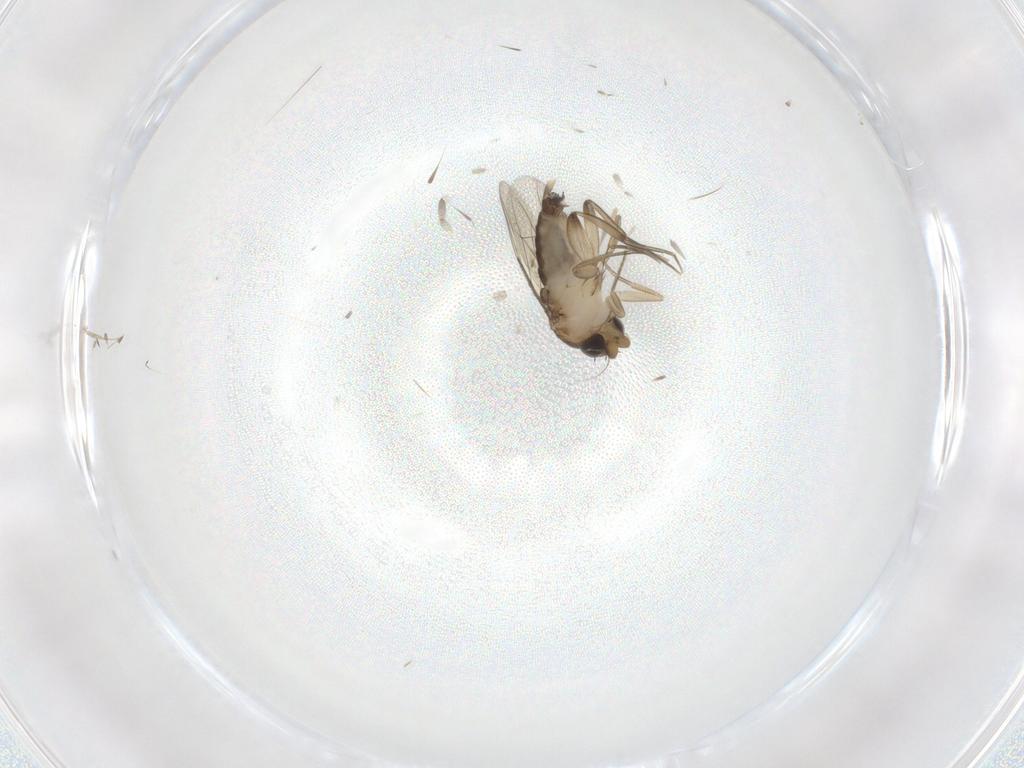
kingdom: Animalia
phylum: Arthropoda
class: Insecta
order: Diptera
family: Phoridae
